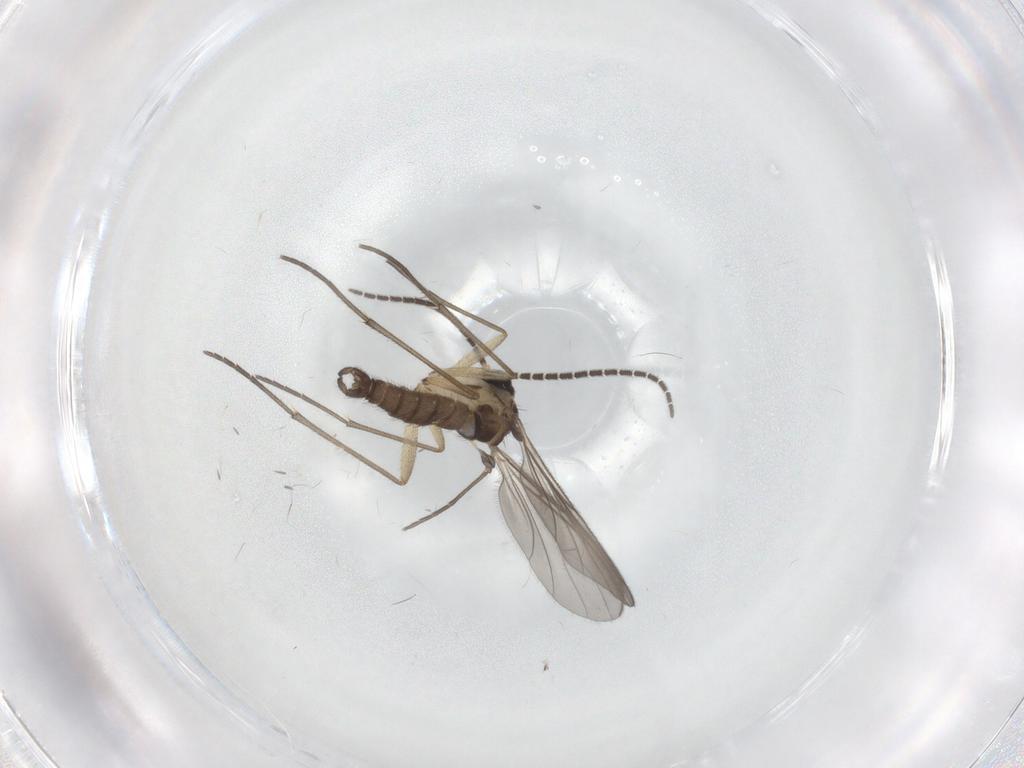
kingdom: Animalia
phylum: Arthropoda
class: Insecta
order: Diptera
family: Sciaridae
